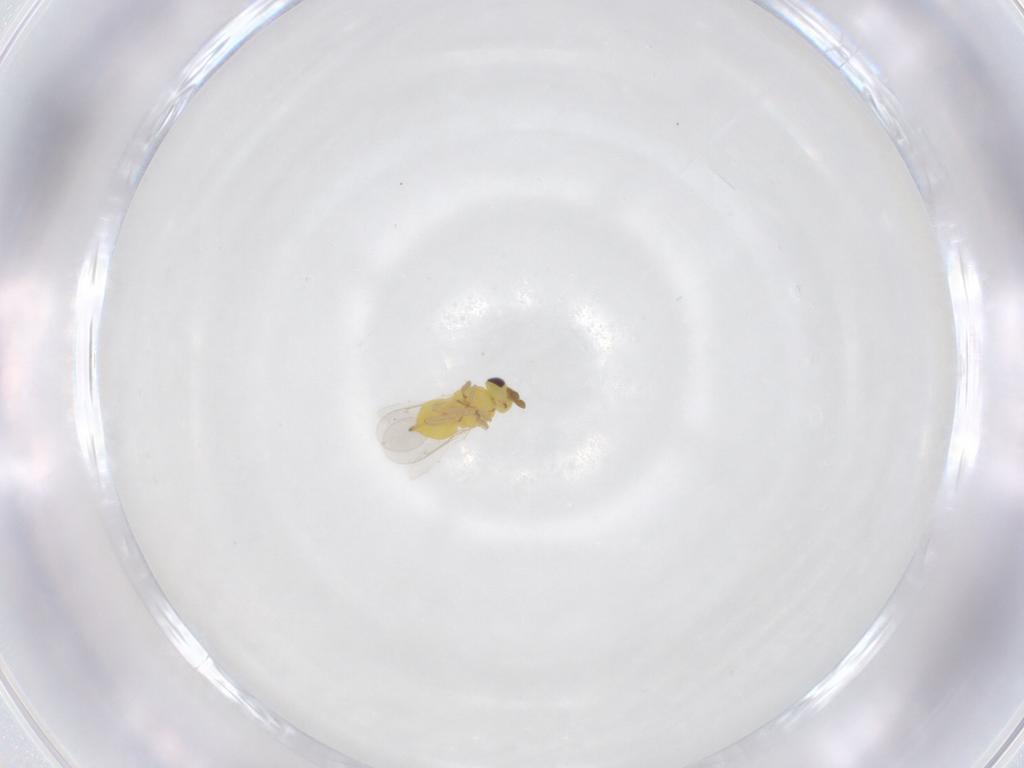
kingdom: Animalia
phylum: Arthropoda
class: Insecta
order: Hymenoptera
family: Aphelinidae
